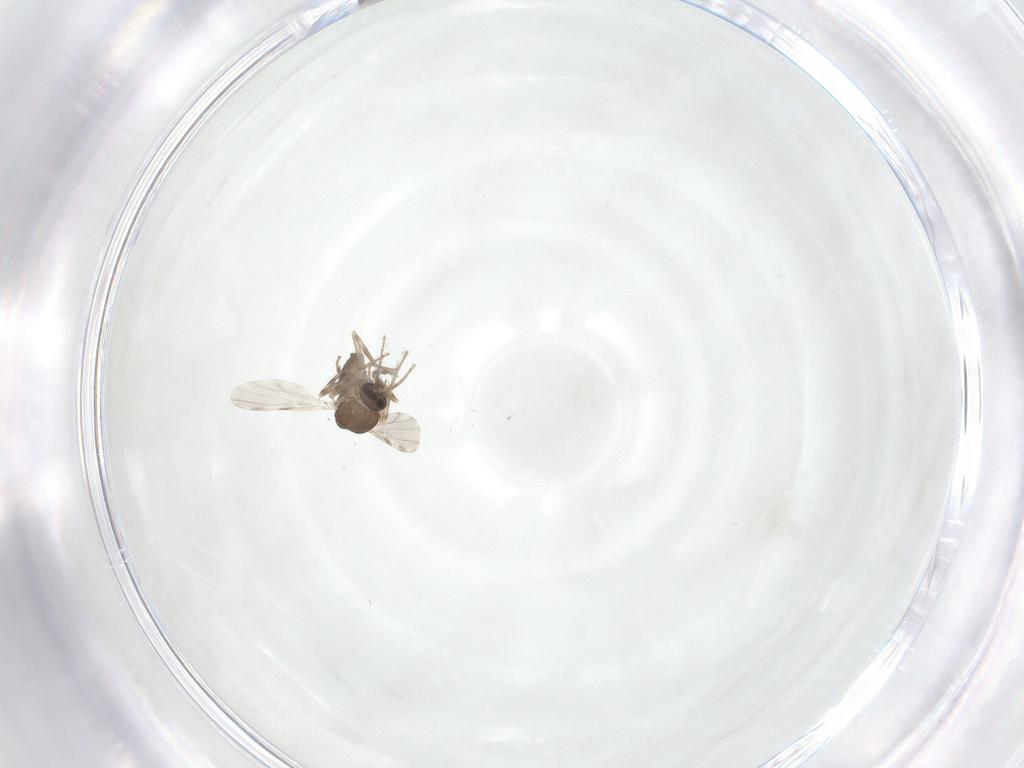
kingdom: Animalia
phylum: Arthropoda
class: Insecta
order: Diptera
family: Ceratopogonidae
